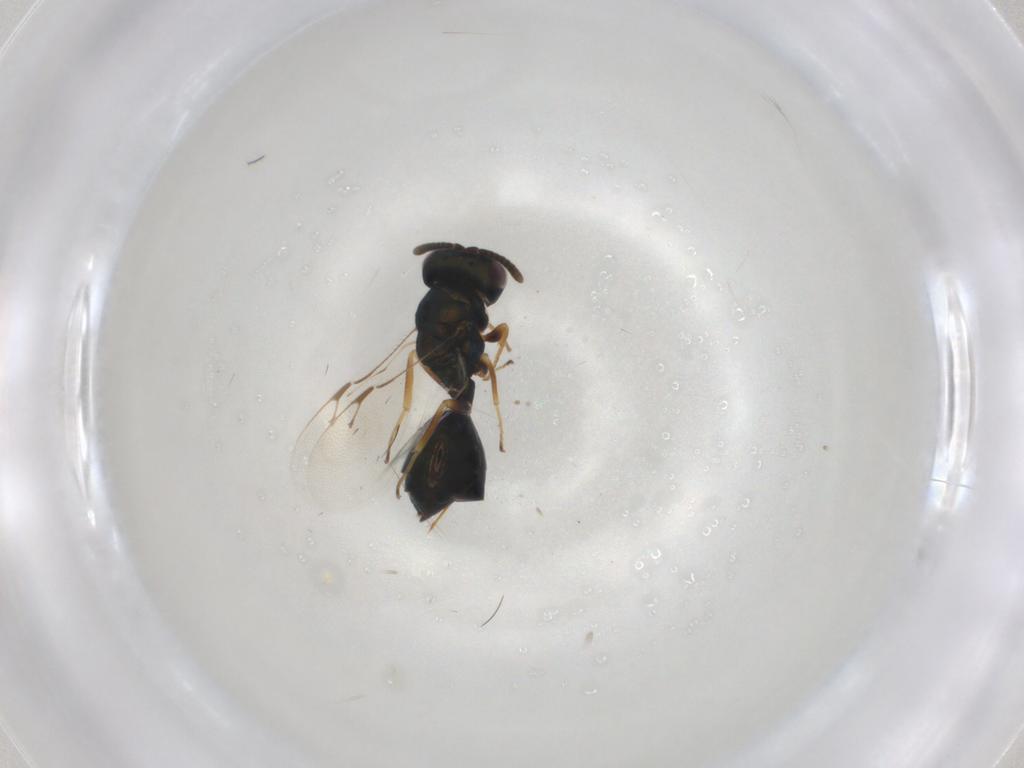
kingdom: Animalia
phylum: Arthropoda
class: Insecta
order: Hymenoptera
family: Pteromalidae
